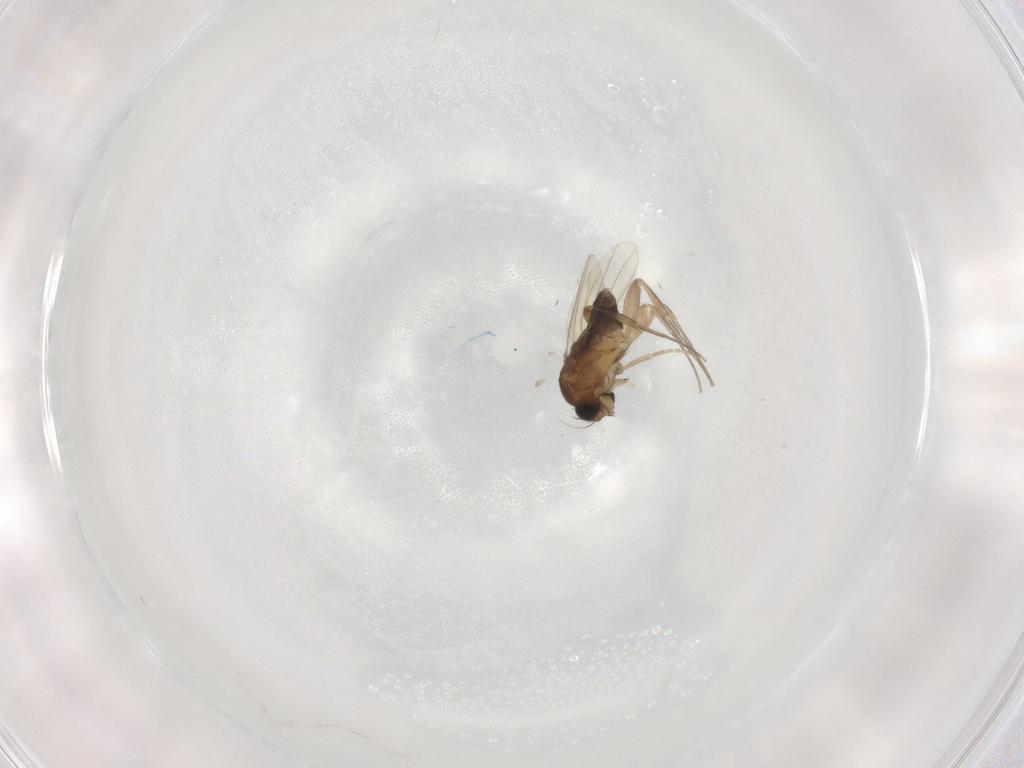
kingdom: Animalia
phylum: Arthropoda
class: Insecta
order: Diptera
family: Phoridae
